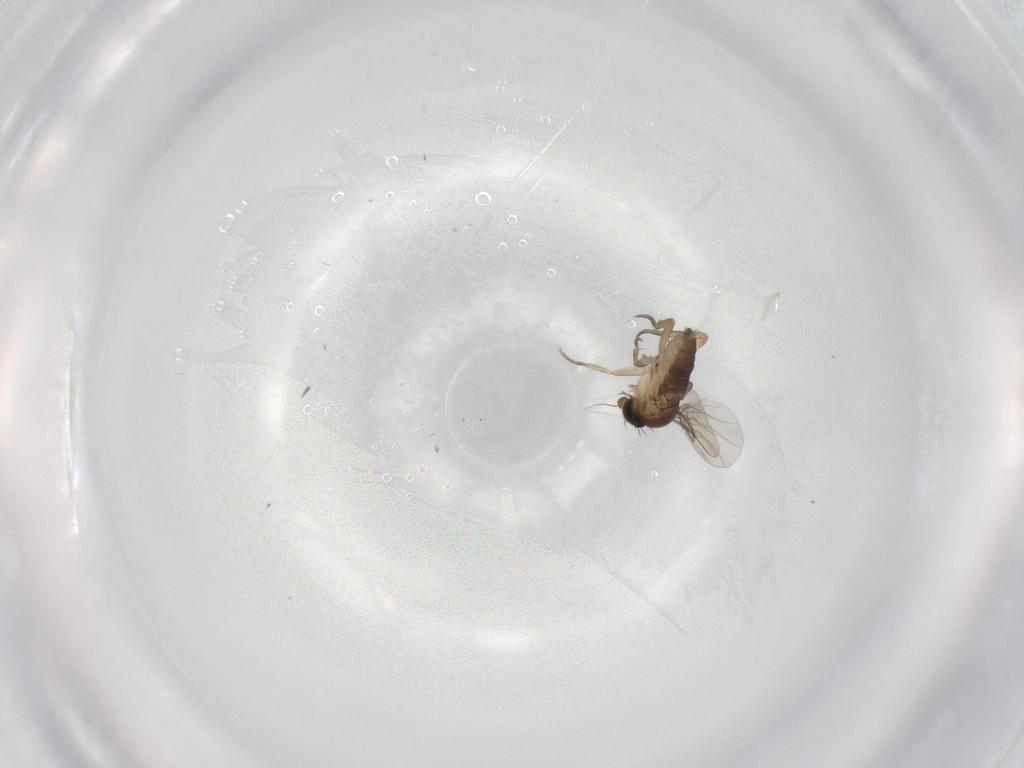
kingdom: Animalia
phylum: Arthropoda
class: Insecta
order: Diptera
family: Phoridae
